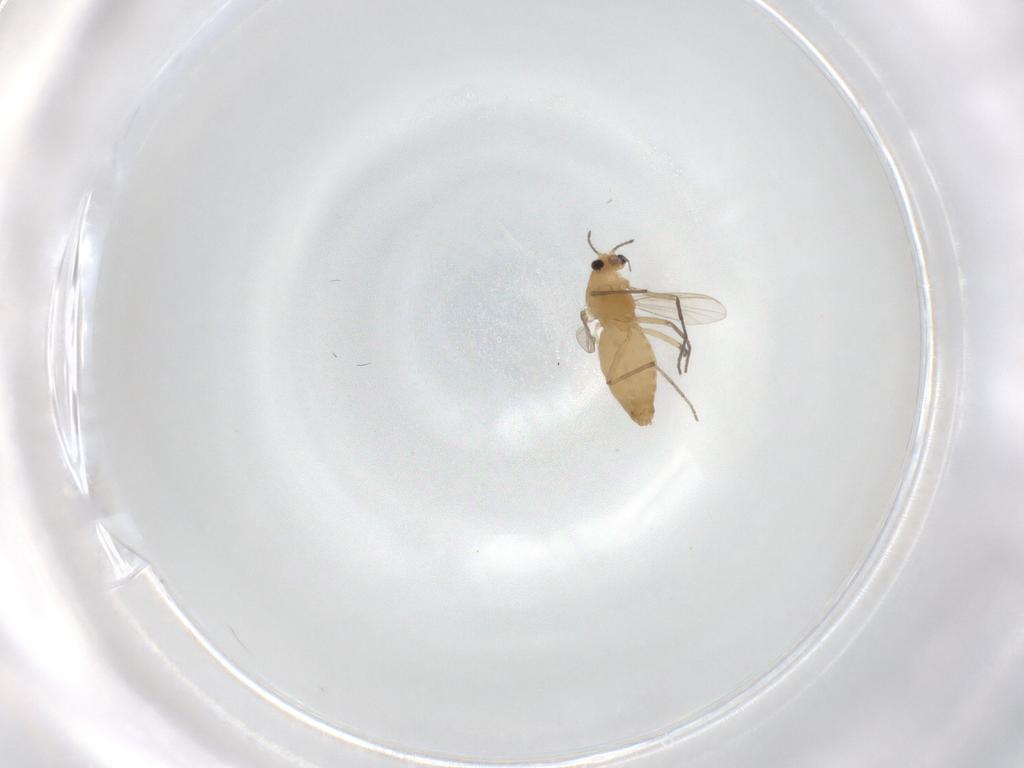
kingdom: Animalia
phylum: Arthropoda
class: Insecta
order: Diptera
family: Chironomidae
